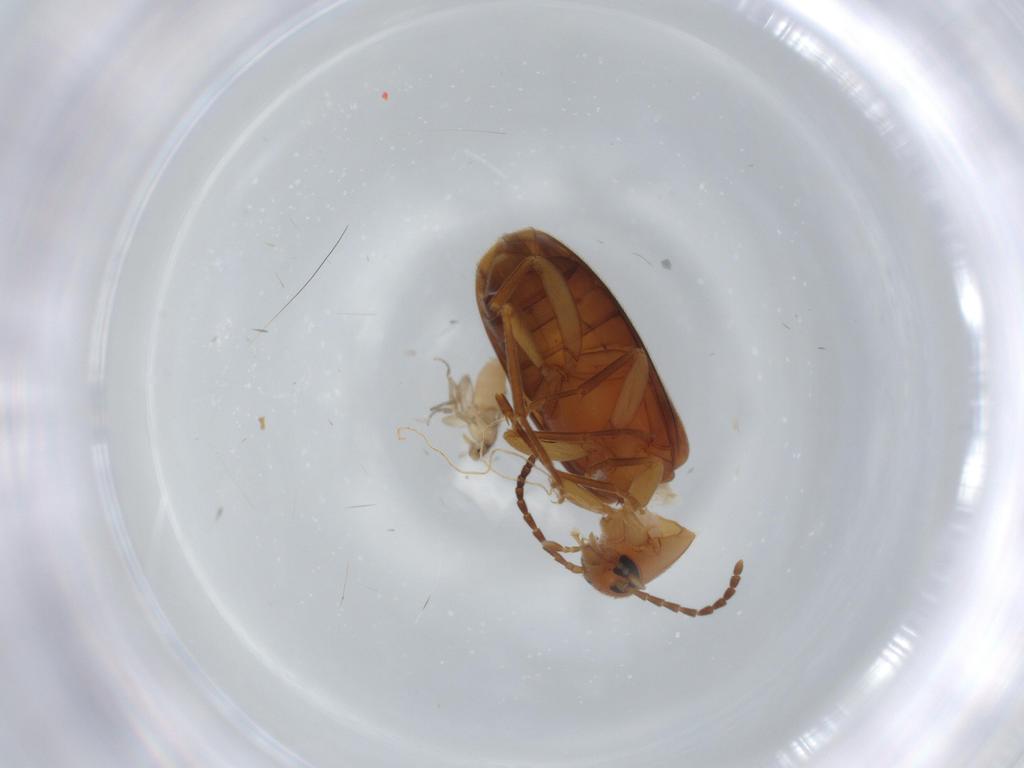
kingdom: Animalia
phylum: Arthropoda
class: Insecta
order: Coleoptera
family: Scraptiidae
